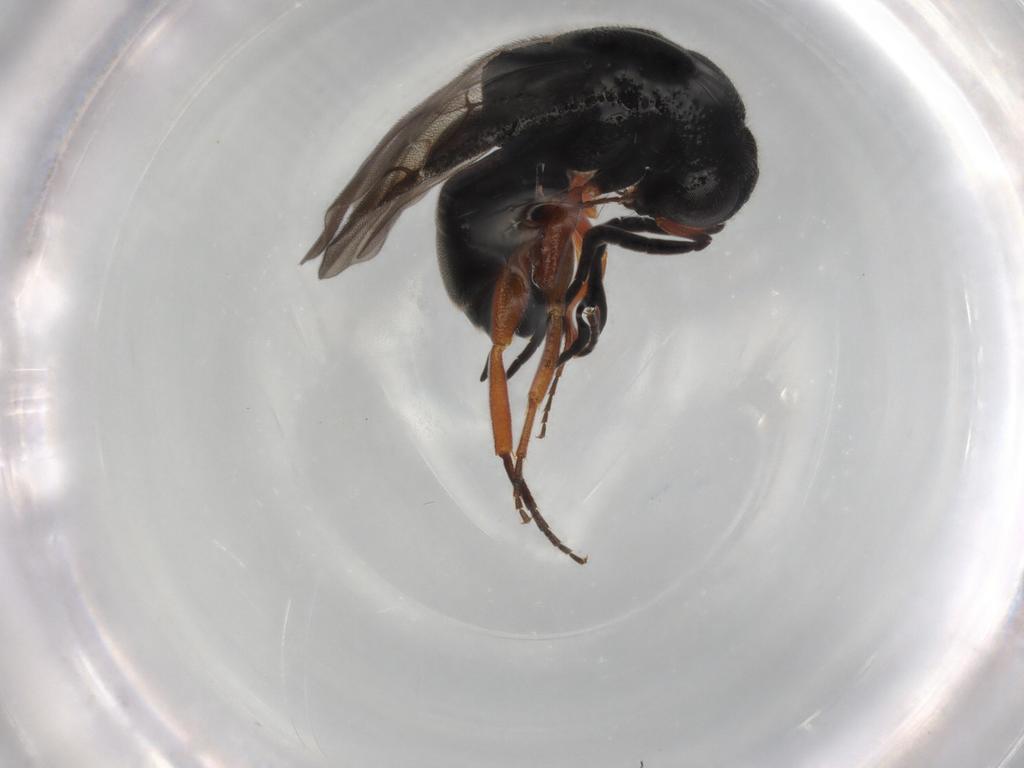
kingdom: Animalia
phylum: Arthropoda
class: Insecta
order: Hymenoptera
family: Chrysididae
